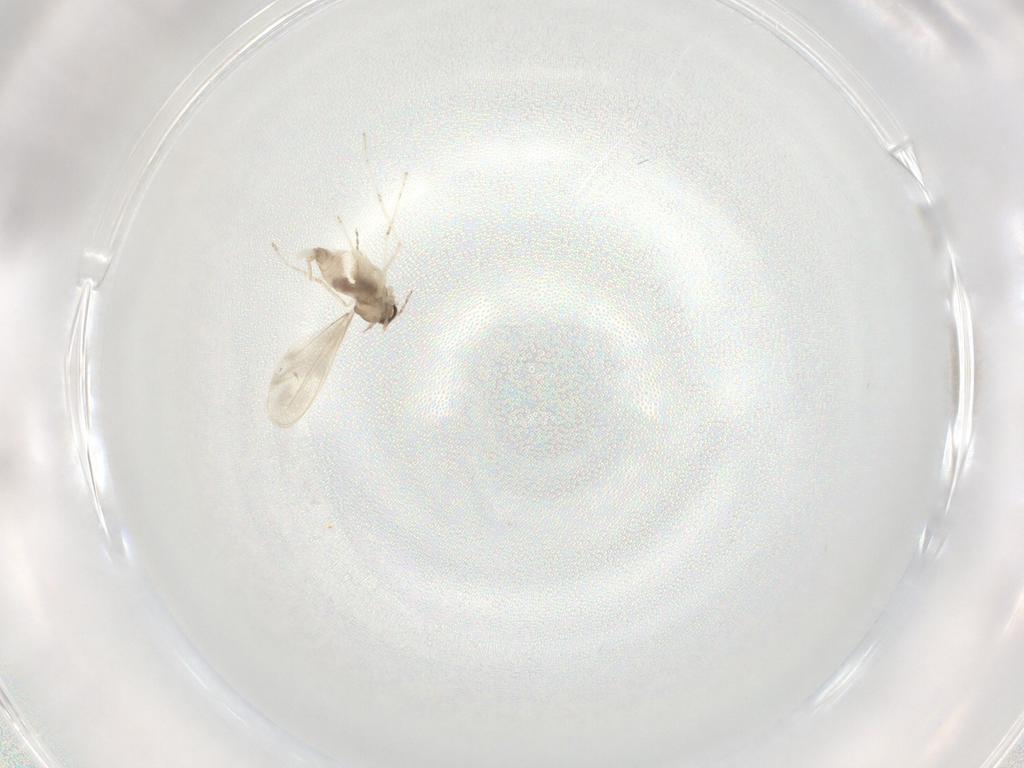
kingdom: Animalia
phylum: Arthropoda
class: Insecta
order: Diptera
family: Cecidomyiidae
